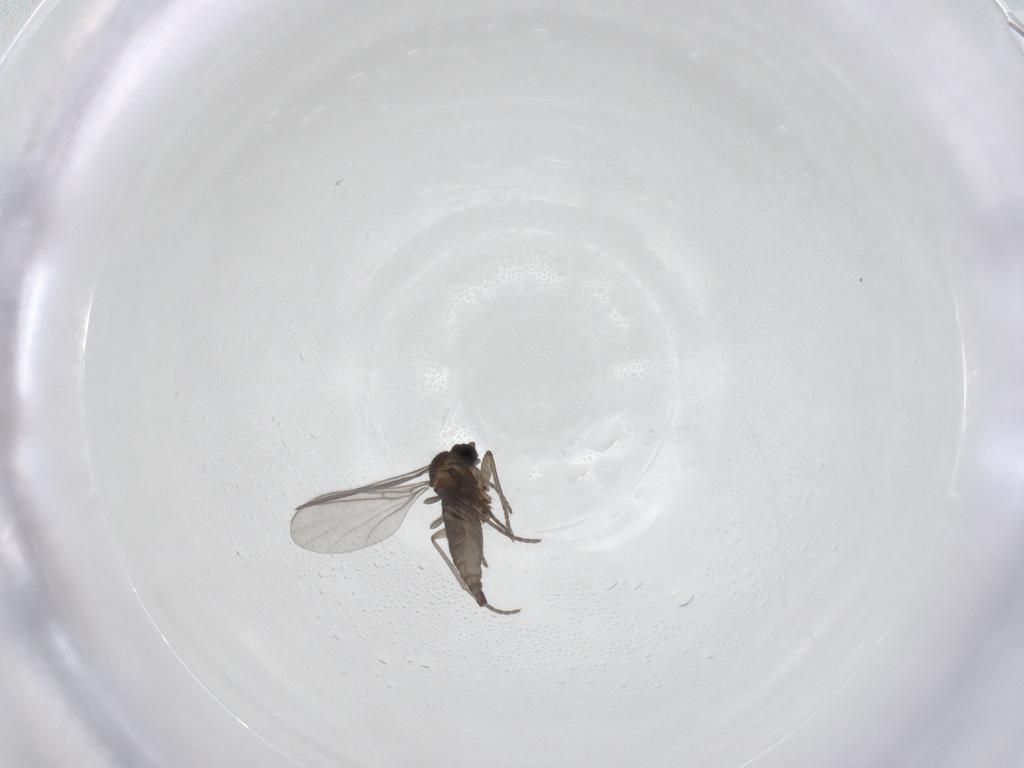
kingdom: Animalia
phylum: Arthropoda
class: Insecta
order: Diptera
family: Sciaridae
